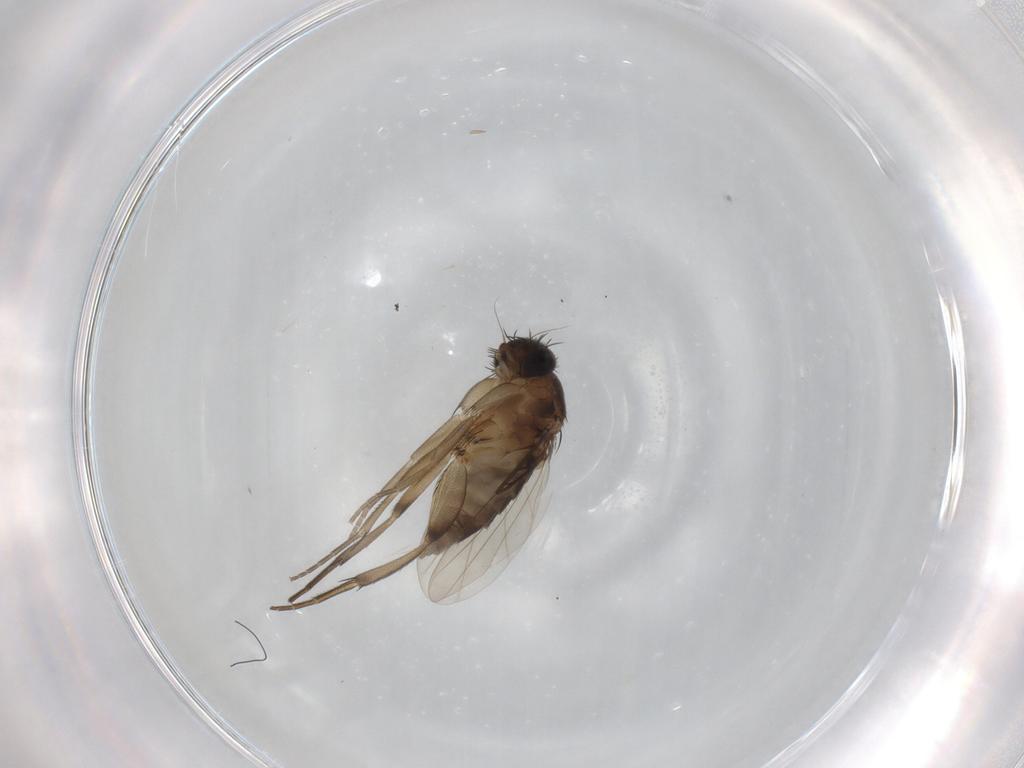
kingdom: Animalia
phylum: Arthropoda
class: Insecta
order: Diptera
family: Phoridae
